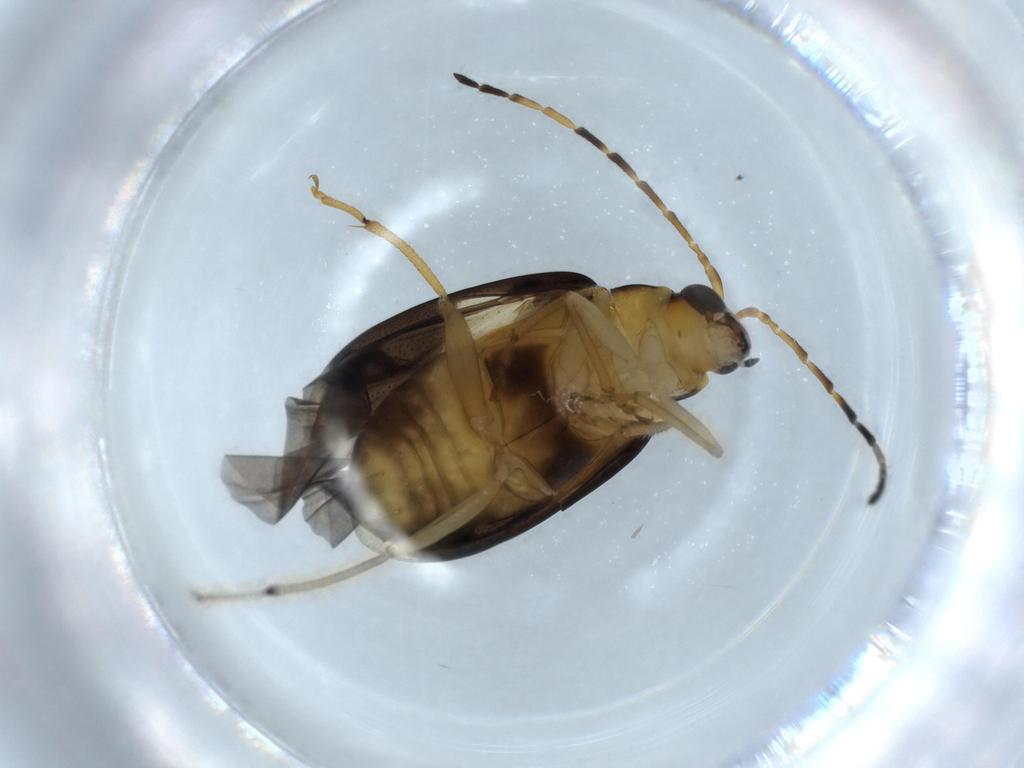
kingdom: Animalia
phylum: Arthropoda
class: Insecta
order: Coleoptera
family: Chrysomelidae
